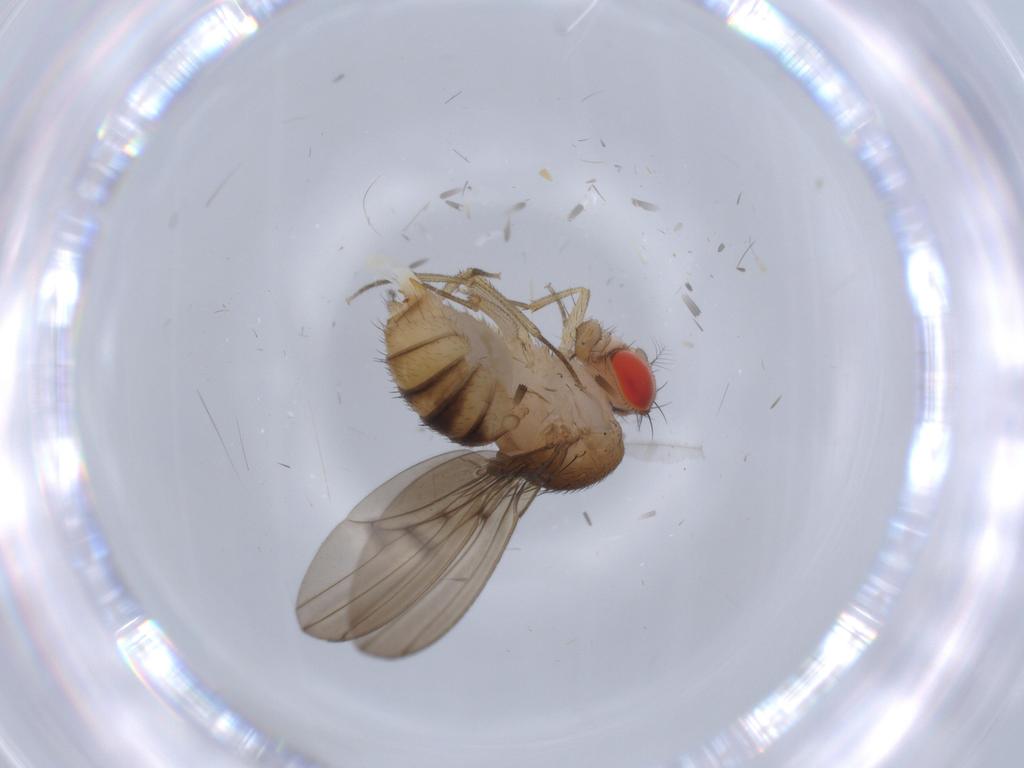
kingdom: Animalia
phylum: Arthropoda
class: Insecta
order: Diptera
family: Drosophilidae
